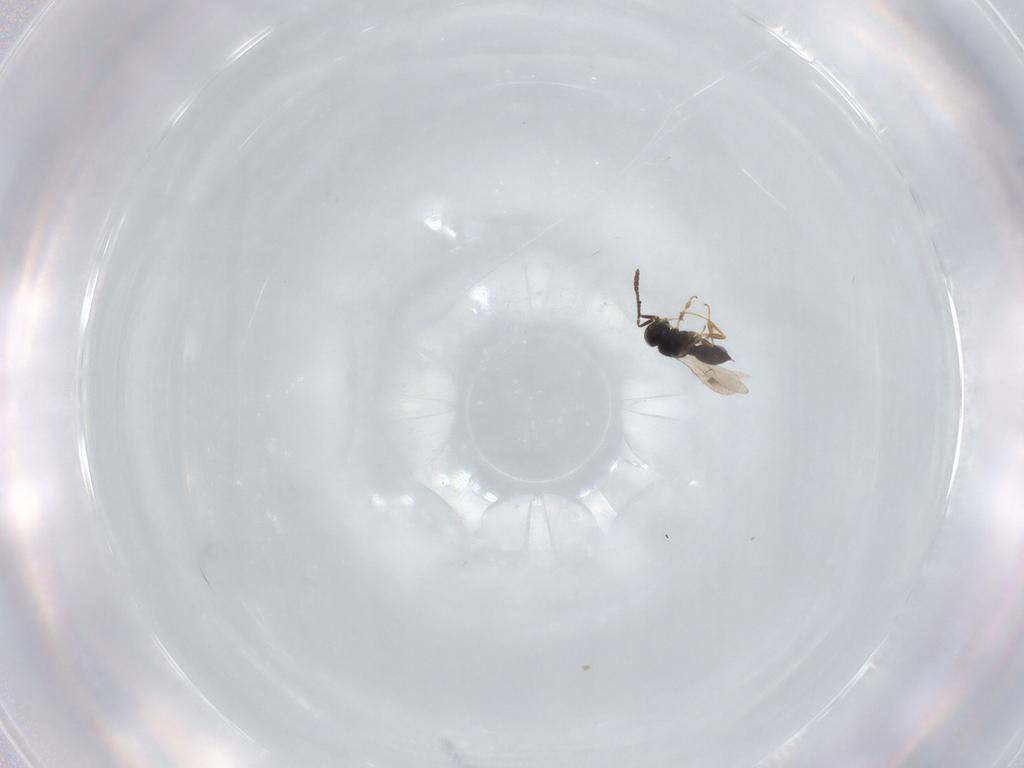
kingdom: Animalia
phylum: Arthropoda
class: Insecta
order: Hymenoptera
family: Scelionidae
